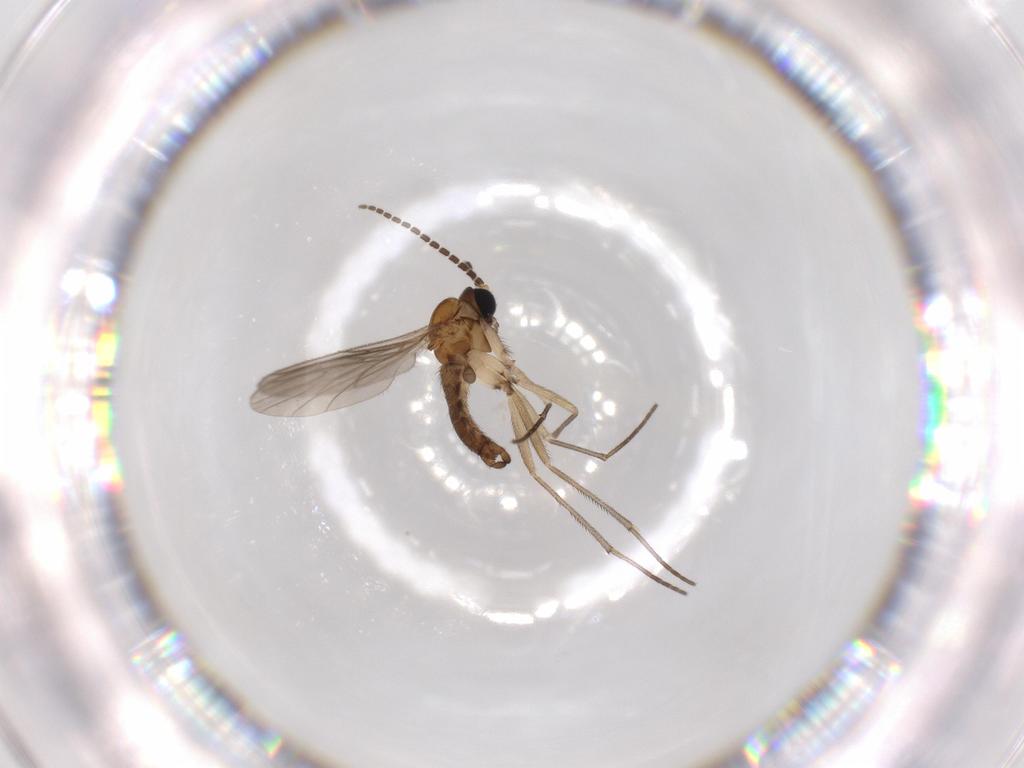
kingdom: Animalia
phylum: Arthropoda
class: Insecta
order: Diptera
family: Sciaridae
